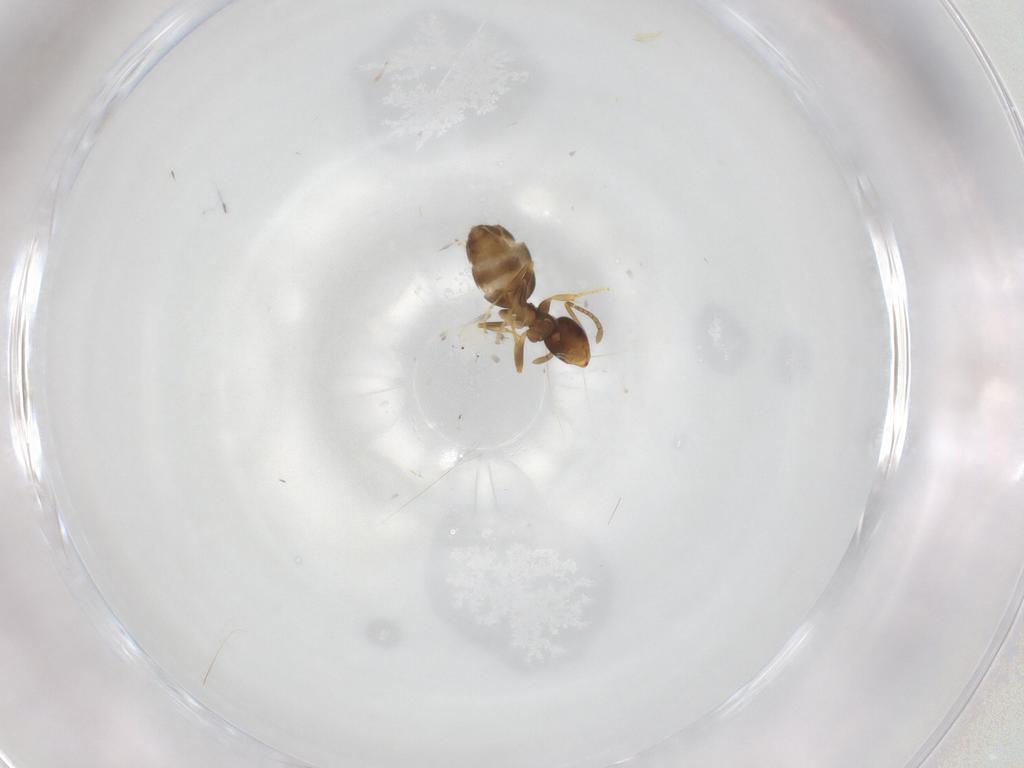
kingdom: Animalia
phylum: Arthropoda
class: Insecta
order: Hymenoptera
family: Formicidae
